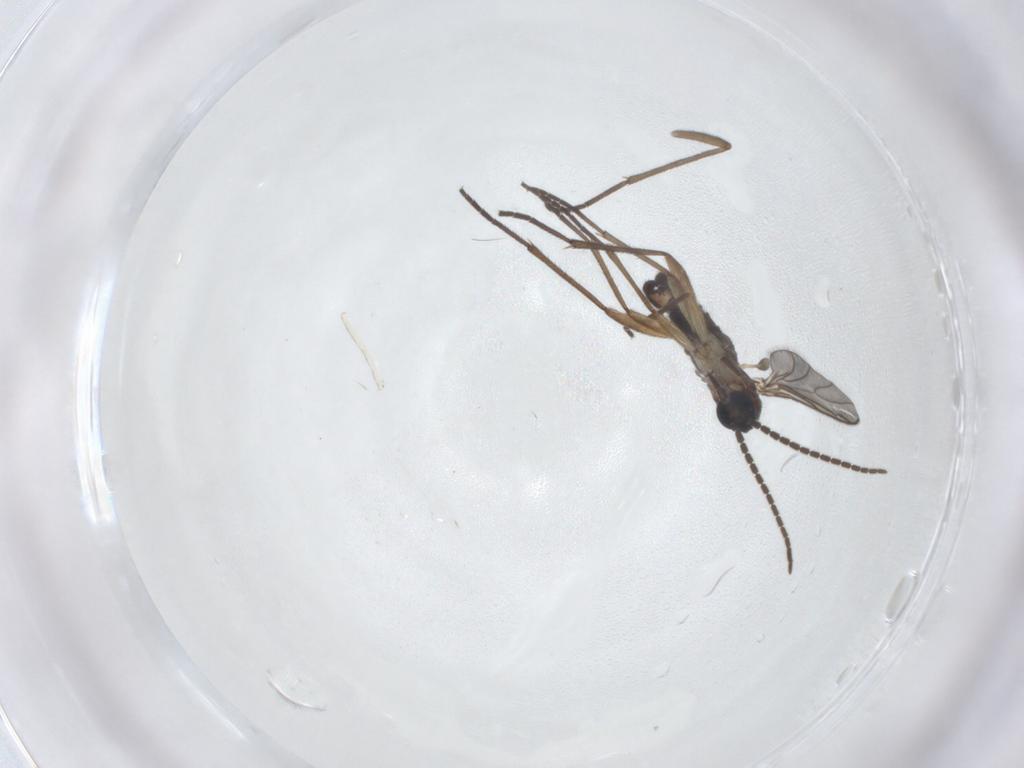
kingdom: Animalia
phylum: Arthropoda
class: Insecta
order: Diptera
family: Sciaridae
